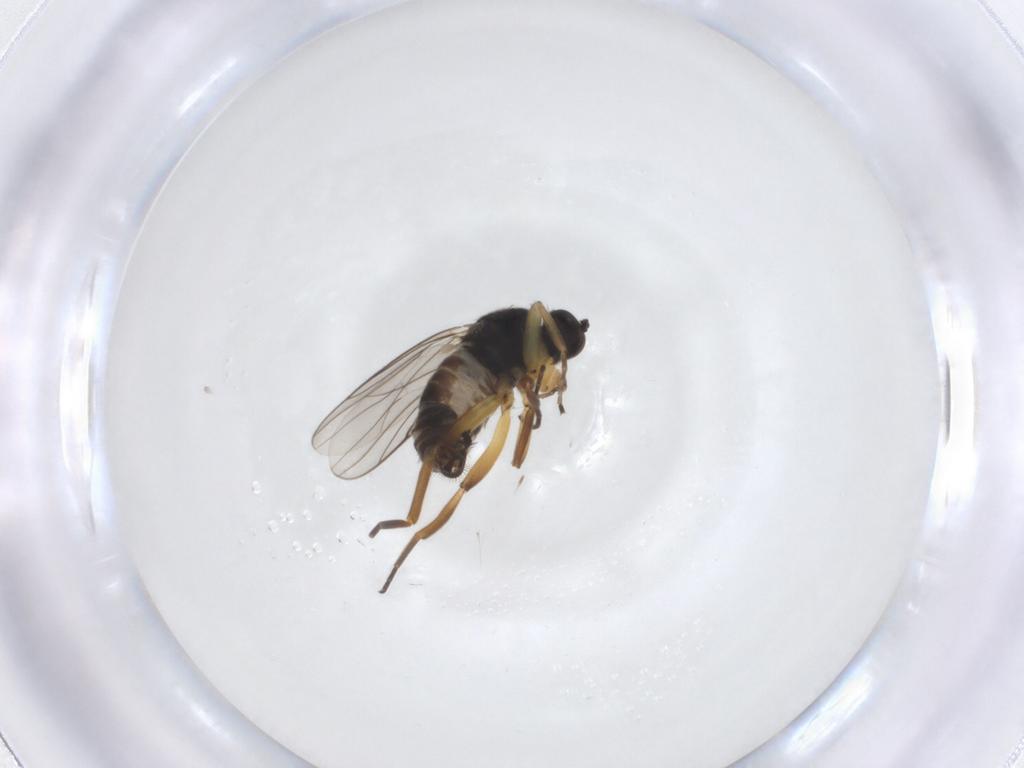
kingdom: Animalia
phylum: Arthropoda
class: Insecta
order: Diptera
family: Hybotidae
